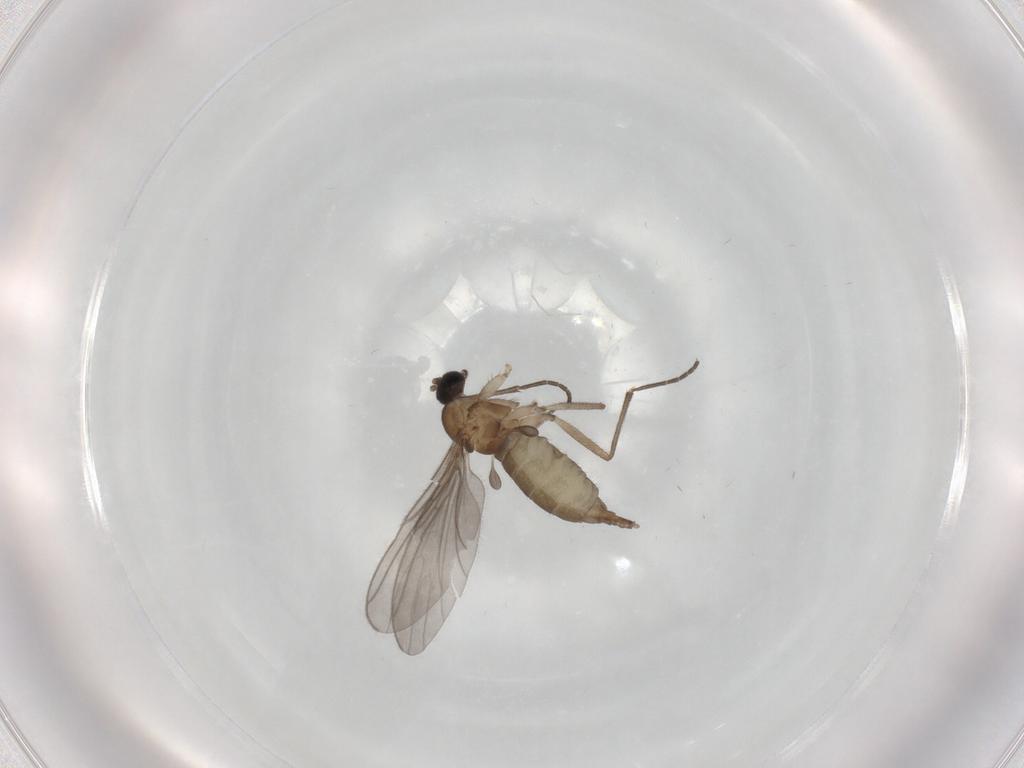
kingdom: Animalia
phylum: Arthropoda
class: Insecta
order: Diptera
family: Sciaridae
